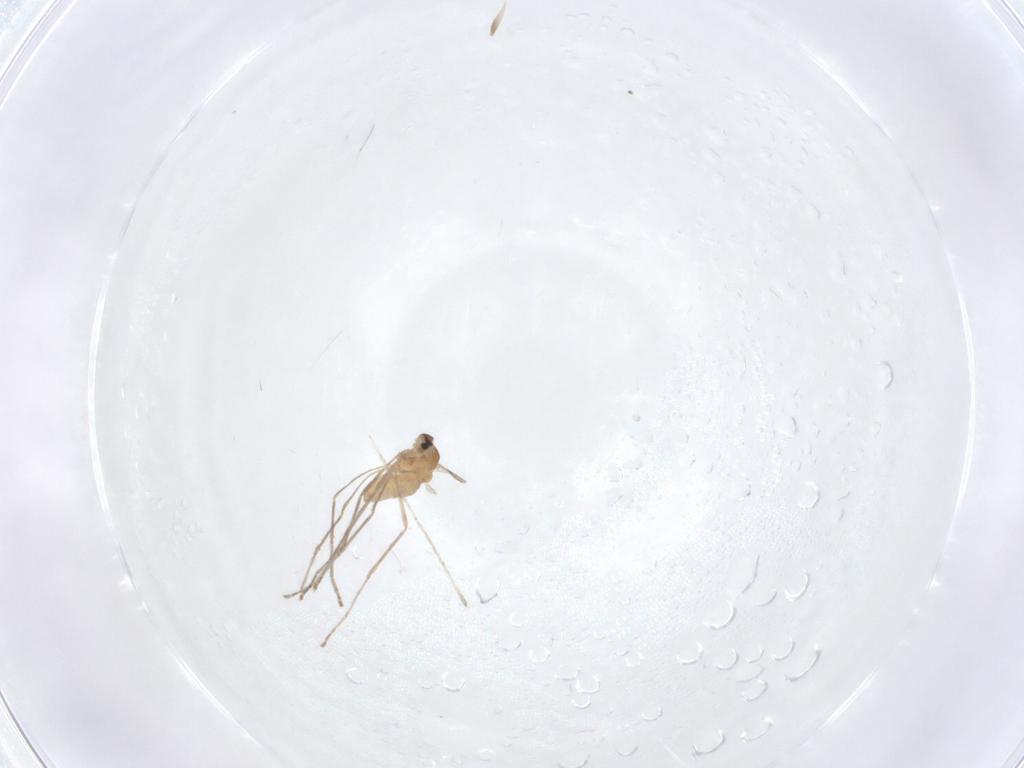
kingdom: Animalia
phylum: Arthropoda
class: Insecta
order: Diptera
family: Cecidomyiidae
